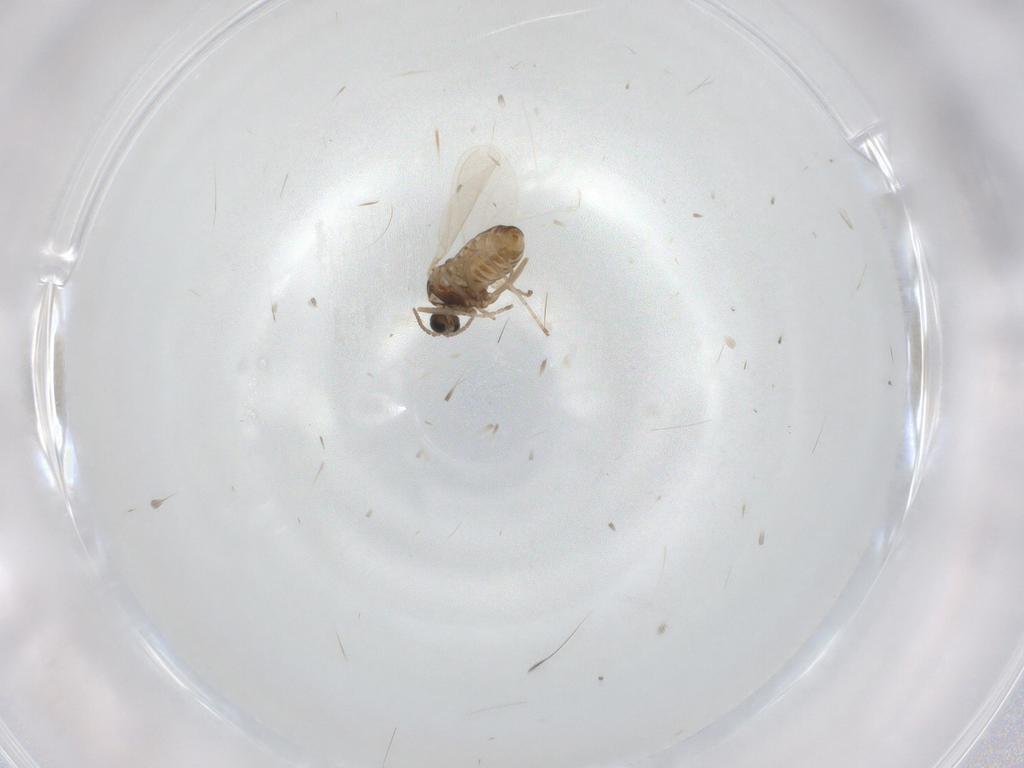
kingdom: Animalia
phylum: Arthropoda
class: Insecta
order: Diptera
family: Cecidomyiidae
